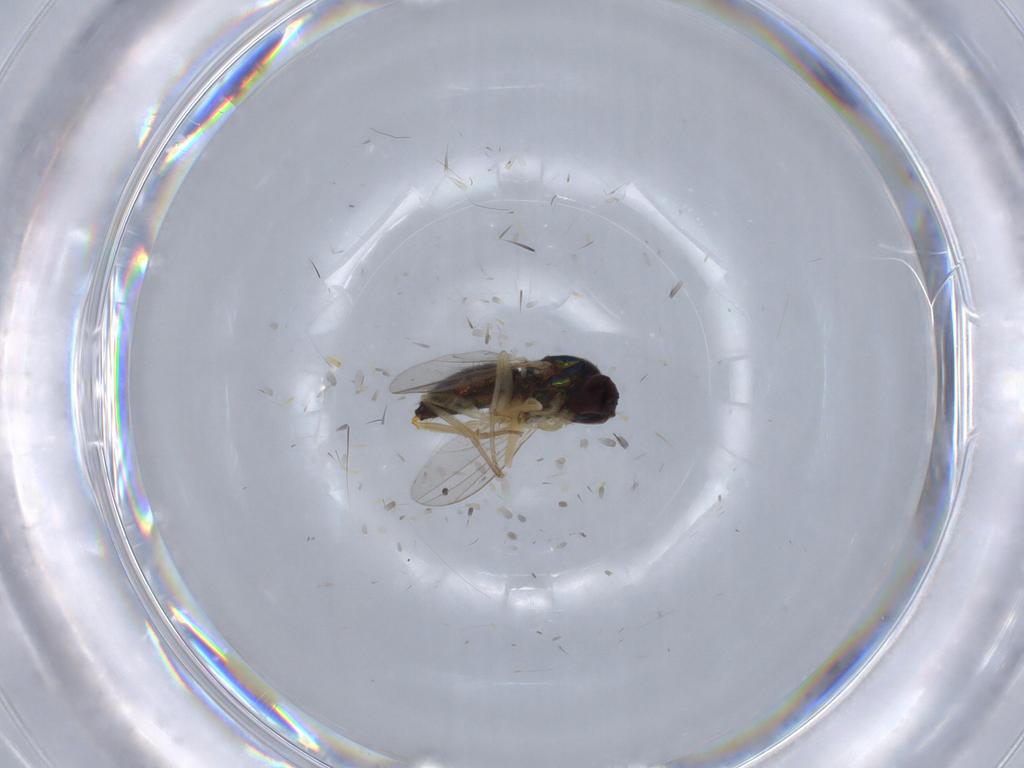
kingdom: Animalia
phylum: Arthropoda
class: Insecta
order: Diptera
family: Dolichopodidae
